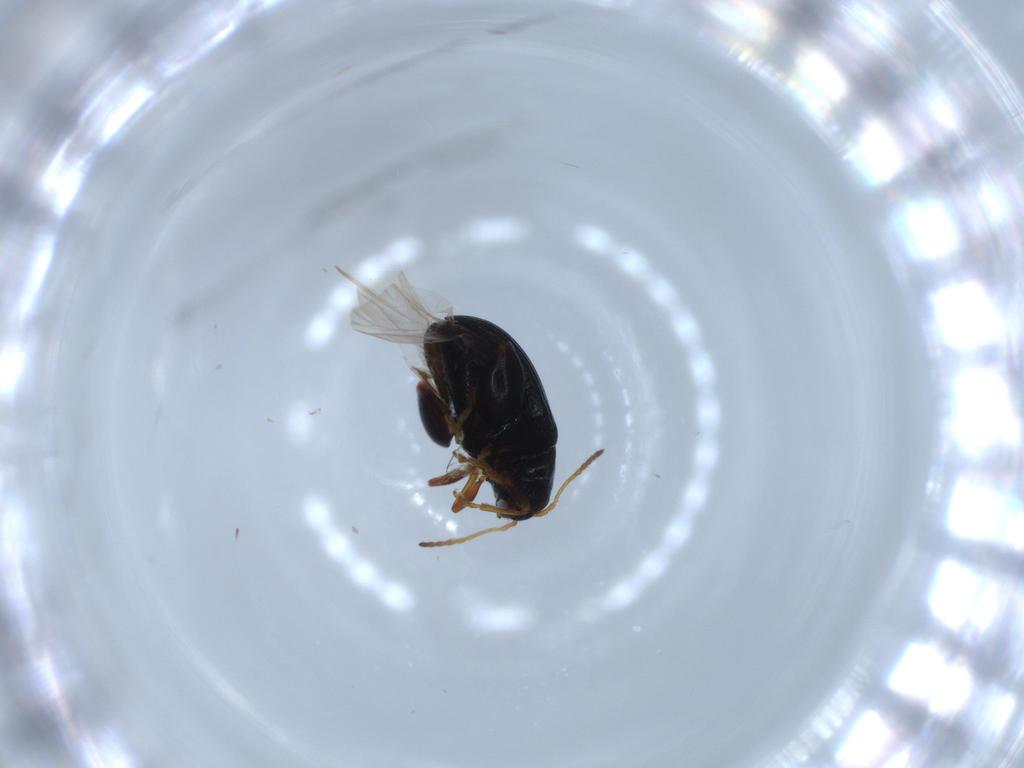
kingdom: Animalia
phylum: Arthropoda
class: Insecta
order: Coleoptera
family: Chrysomelidae
